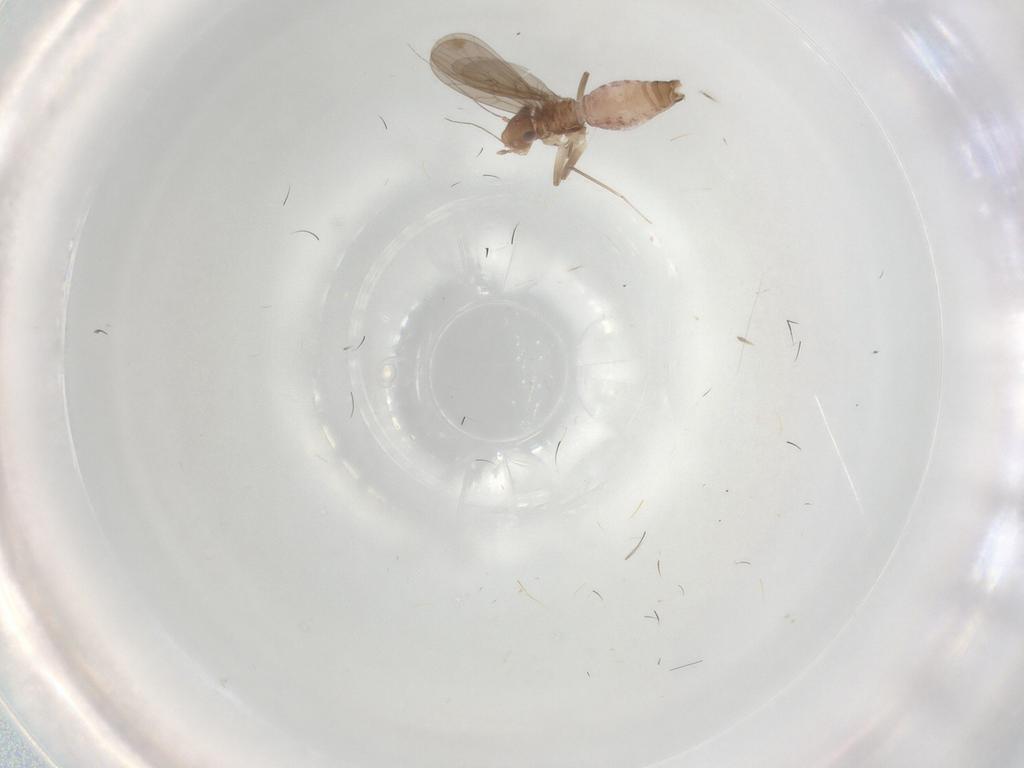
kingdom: Animalia
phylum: Arthropoda
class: Insecta
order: Psocodea
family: Lepidopsocidae
